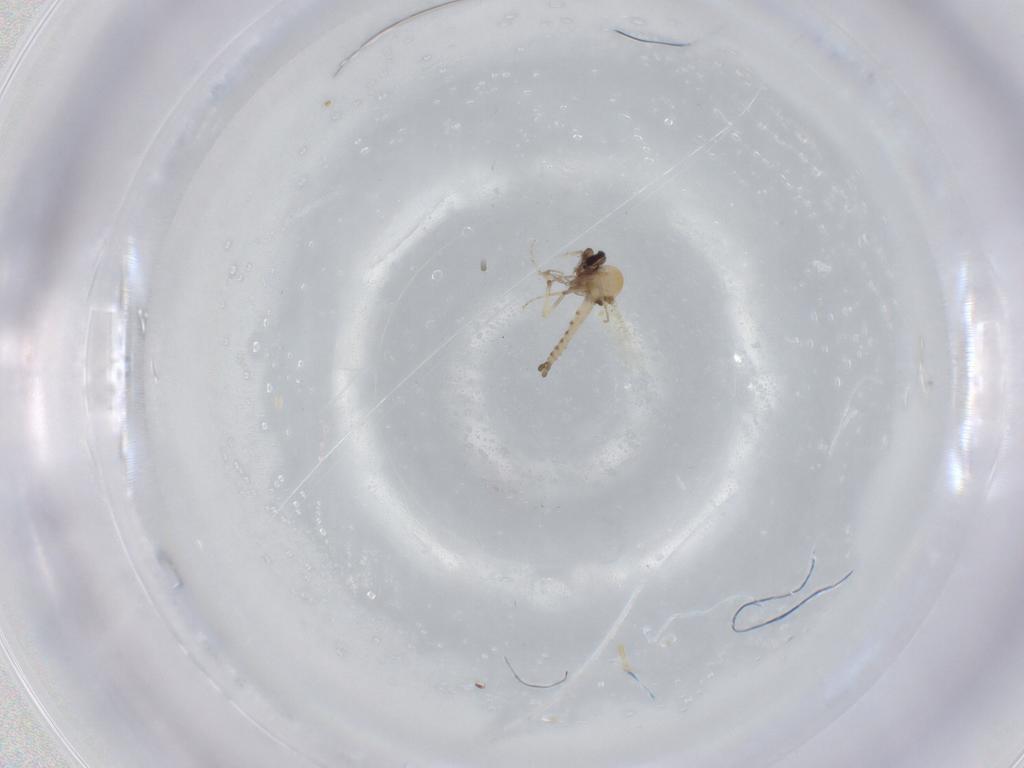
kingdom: Animalia
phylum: Arthropoda
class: Insecta
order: Diptera
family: Ceratopogonidae
